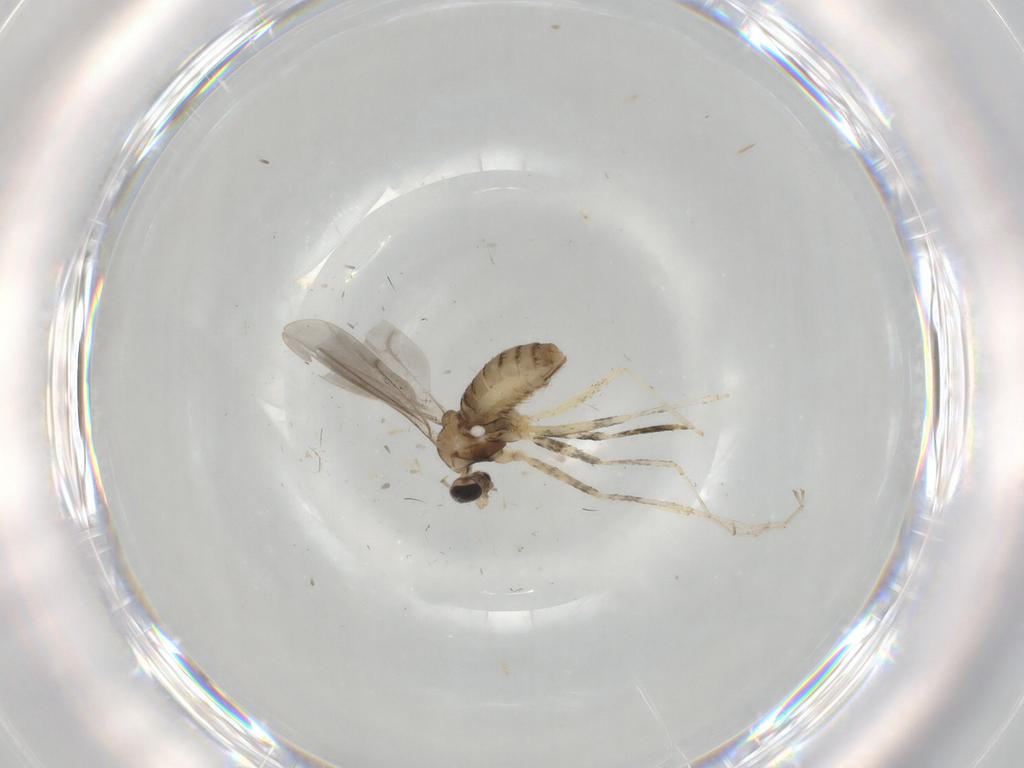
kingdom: Animalia
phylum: Arthropoda
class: Insecta
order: Diptera
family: Cecidomyiidae
